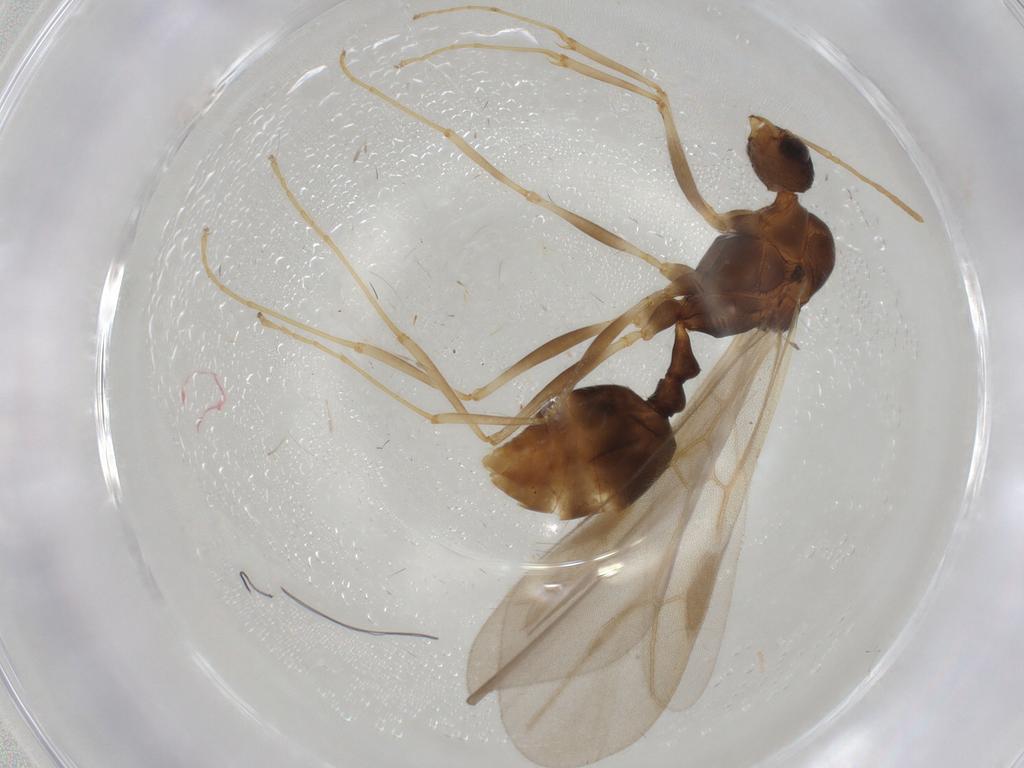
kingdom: Animalia
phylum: Arthropoda
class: Insecta
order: Hymenoptera
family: Formicidae
